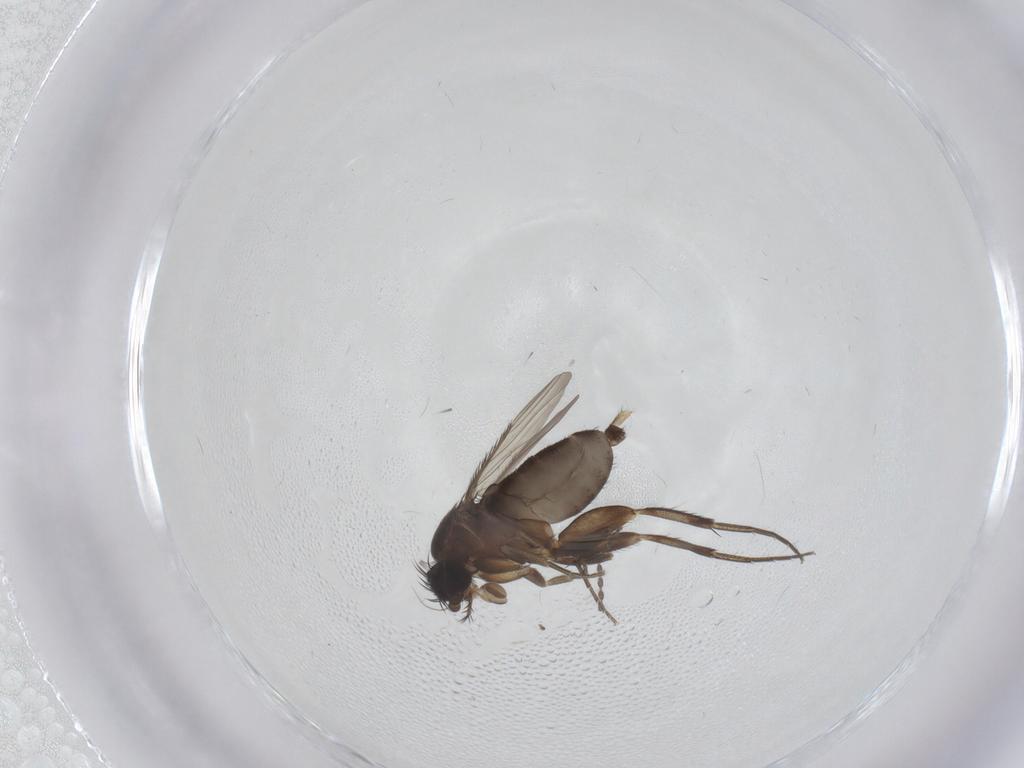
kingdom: Animalia
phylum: Arthropoda
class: Insecta
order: Diptera
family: Phoridae
